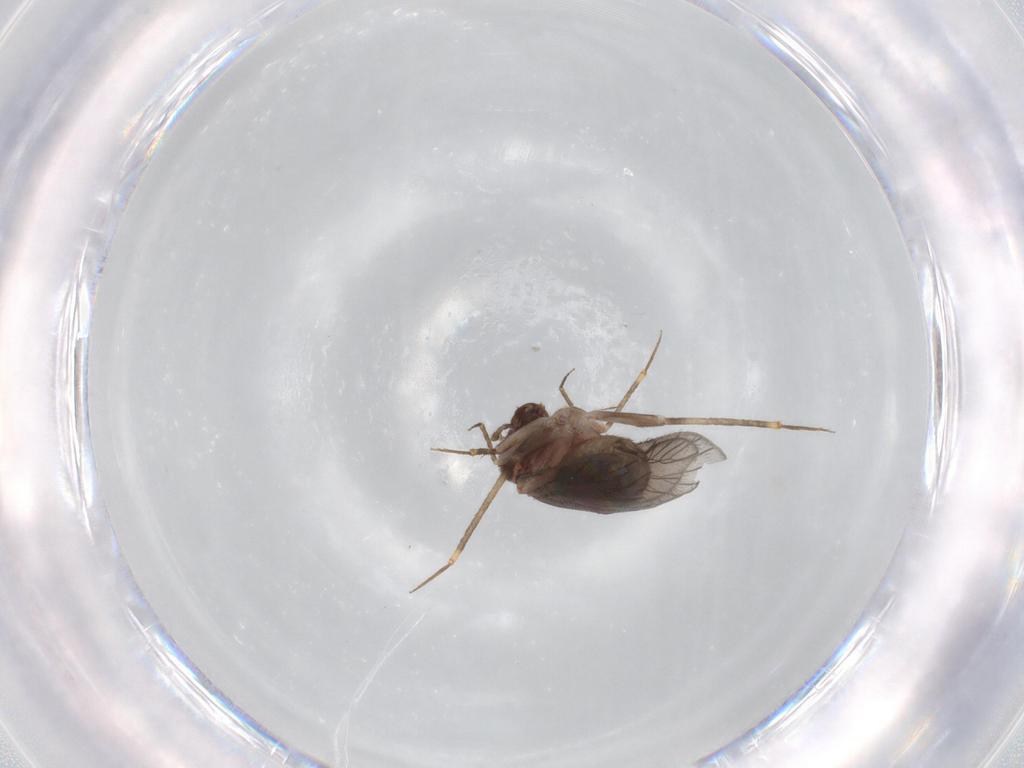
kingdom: Animalia
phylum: Arthropoda
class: Insecta
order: Psocodea
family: Lepidopsocidae
